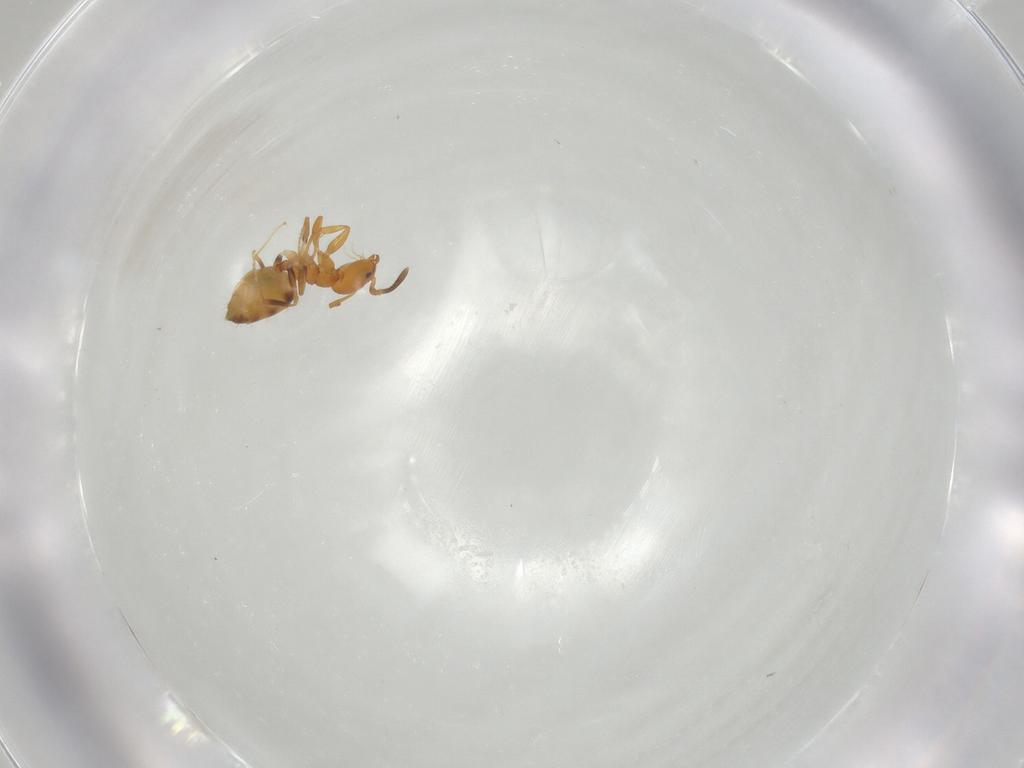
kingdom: Animalia
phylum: Arthropoda
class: Insecta
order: Hymenoptera
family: Formicidae
